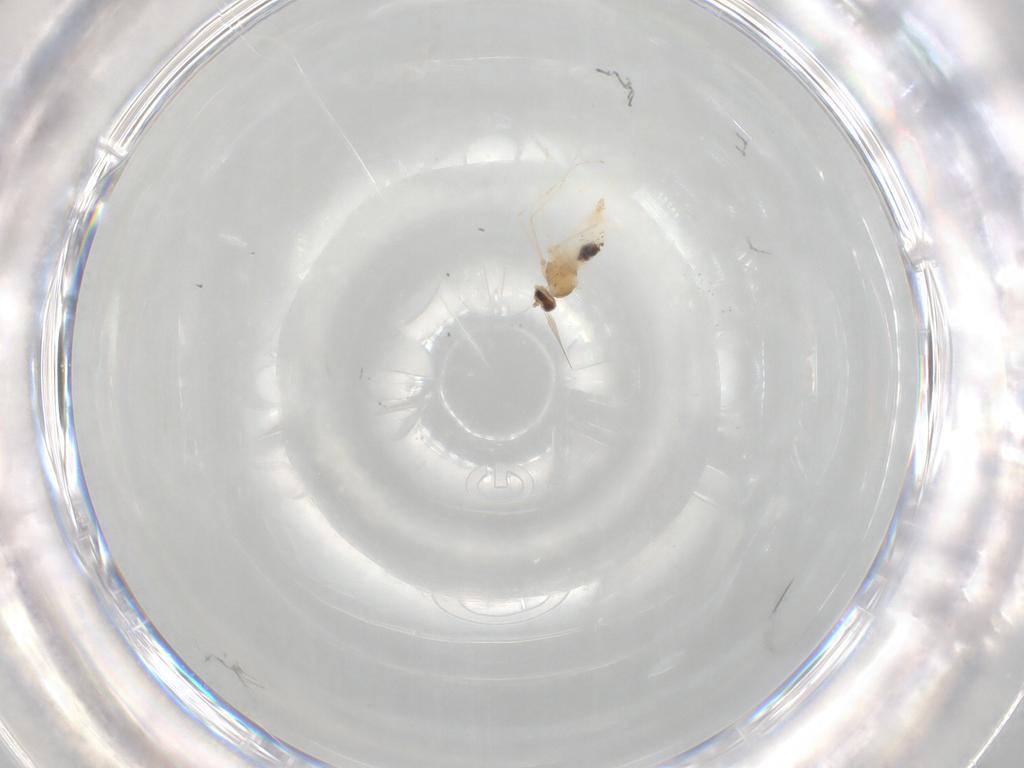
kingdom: Animalia
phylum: Arthropoda
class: Insecta
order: Diptera
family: Cecidomyiidae
